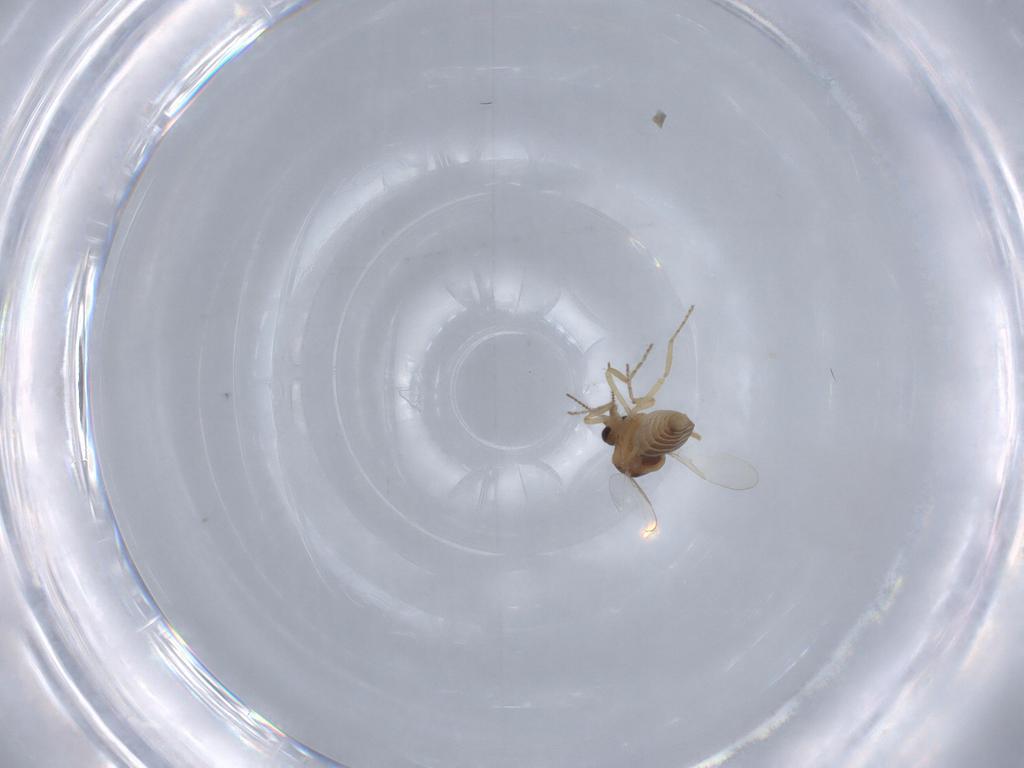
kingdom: Animalia
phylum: Arthropoda
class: Insecta
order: Diptera
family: Ceratopogonidae
